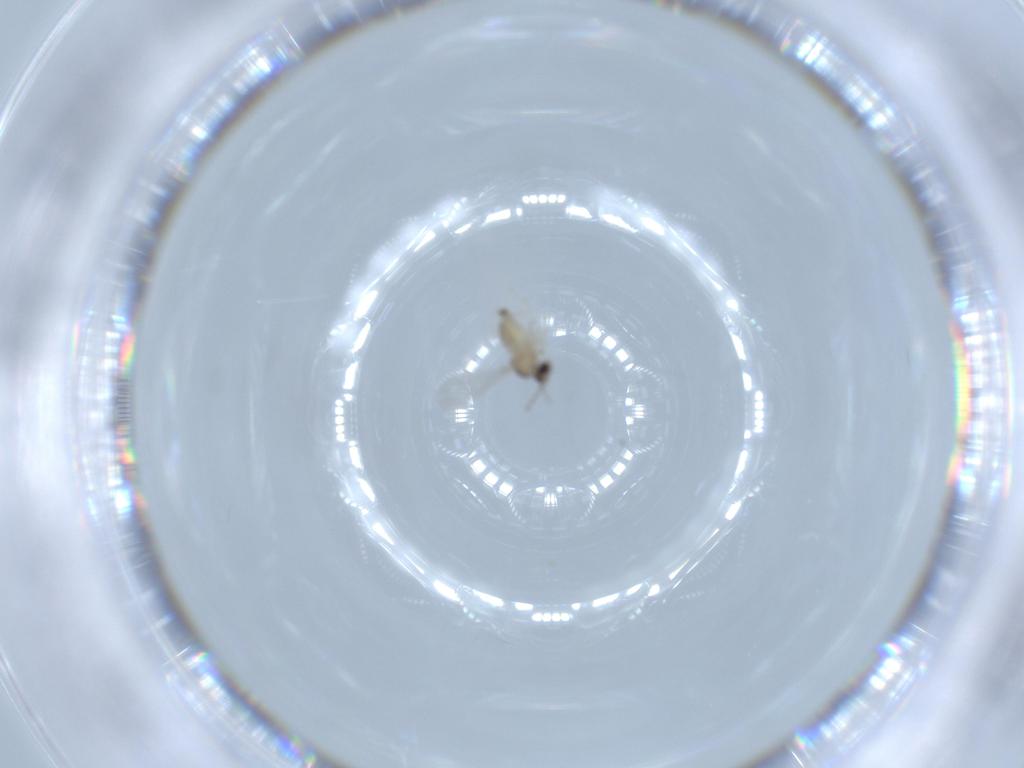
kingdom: Animalia
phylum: Arthropoda
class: Insecta
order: Diptera
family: Cecidomyiidae
